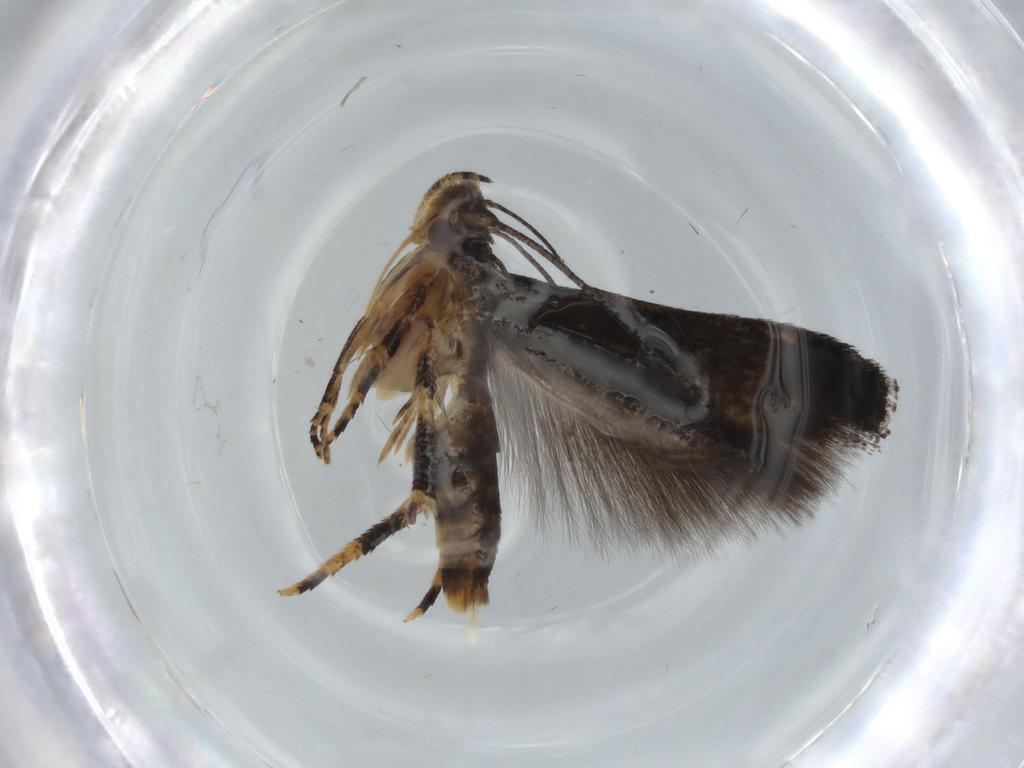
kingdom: Animalia
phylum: Arthropoda
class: Insecta
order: Lepidoptera
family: Momphidae
